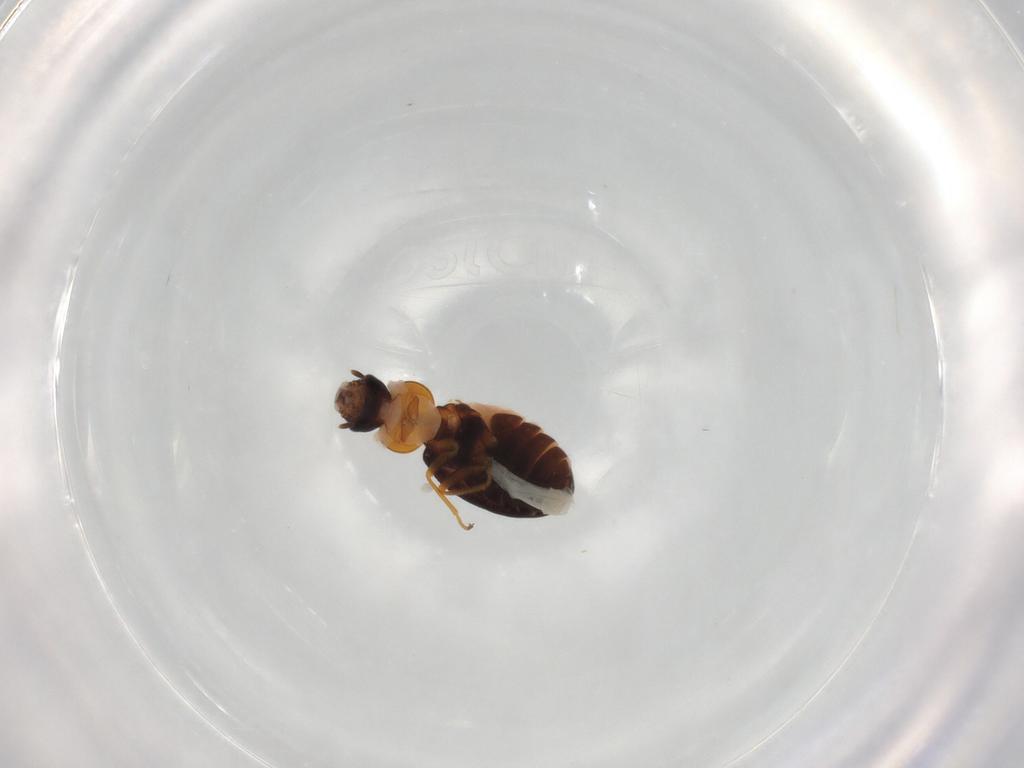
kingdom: Animalia
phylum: Arthropoda
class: Insecta
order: Coleoptera
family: Melyridae
